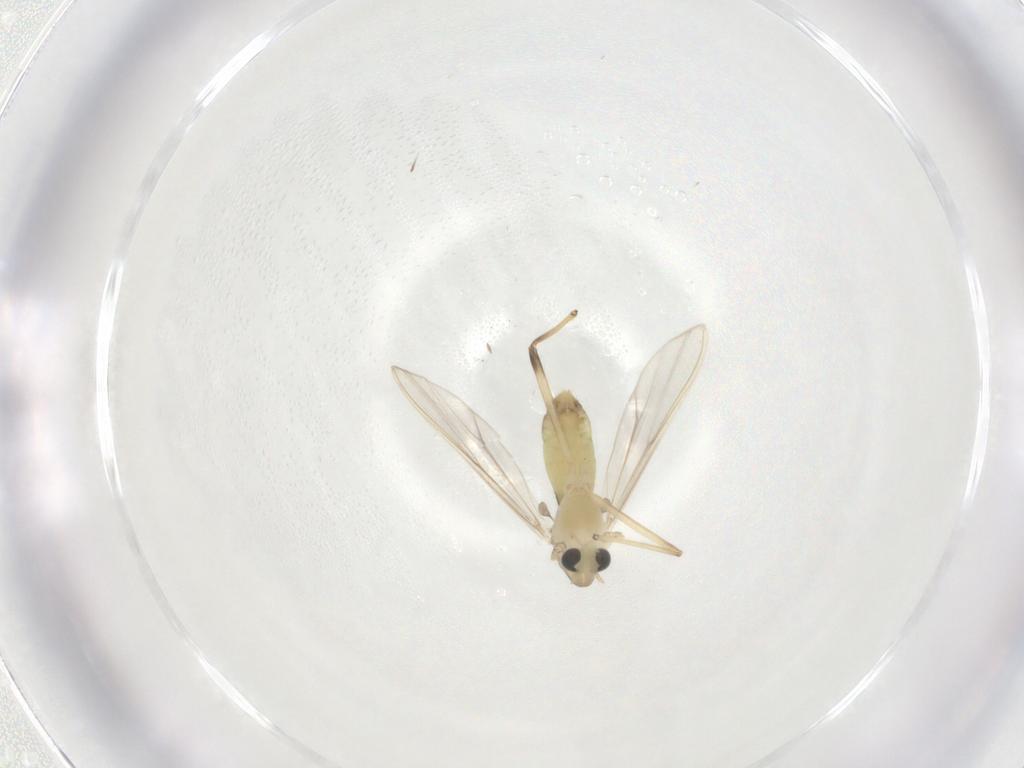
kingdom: Animalia
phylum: Arthropoda
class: Insecta
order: Diptera
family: Chironomidae
